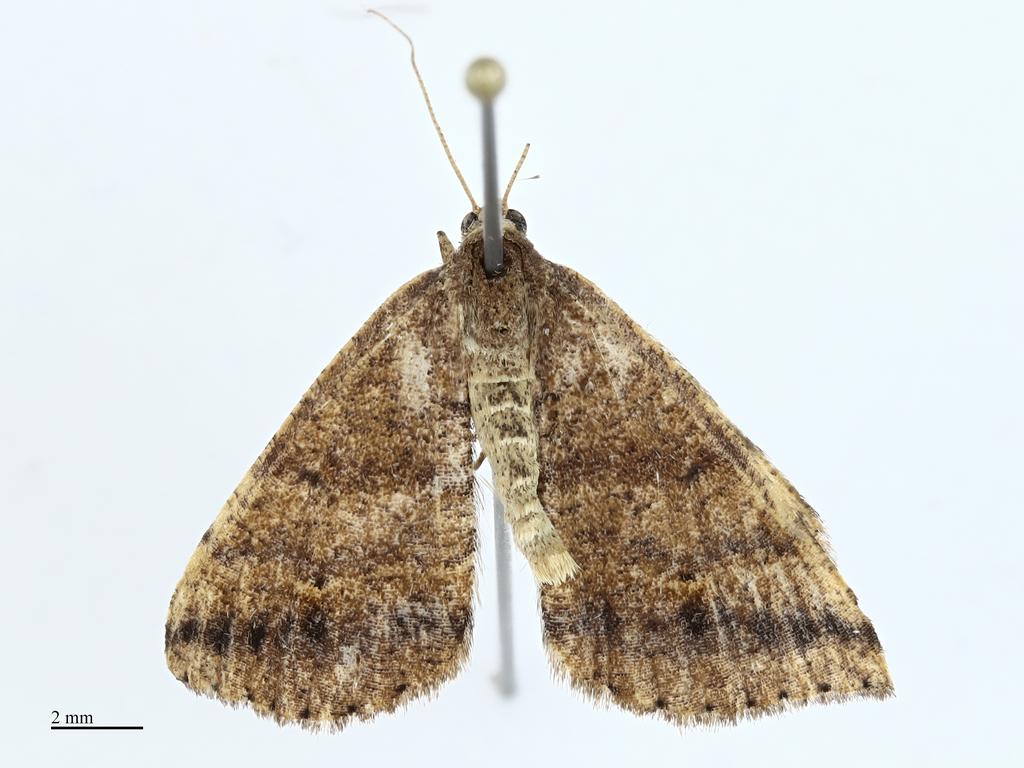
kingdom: Animalia
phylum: Arthropoda
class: Insecta
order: Lepidoptera
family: Geometridae
